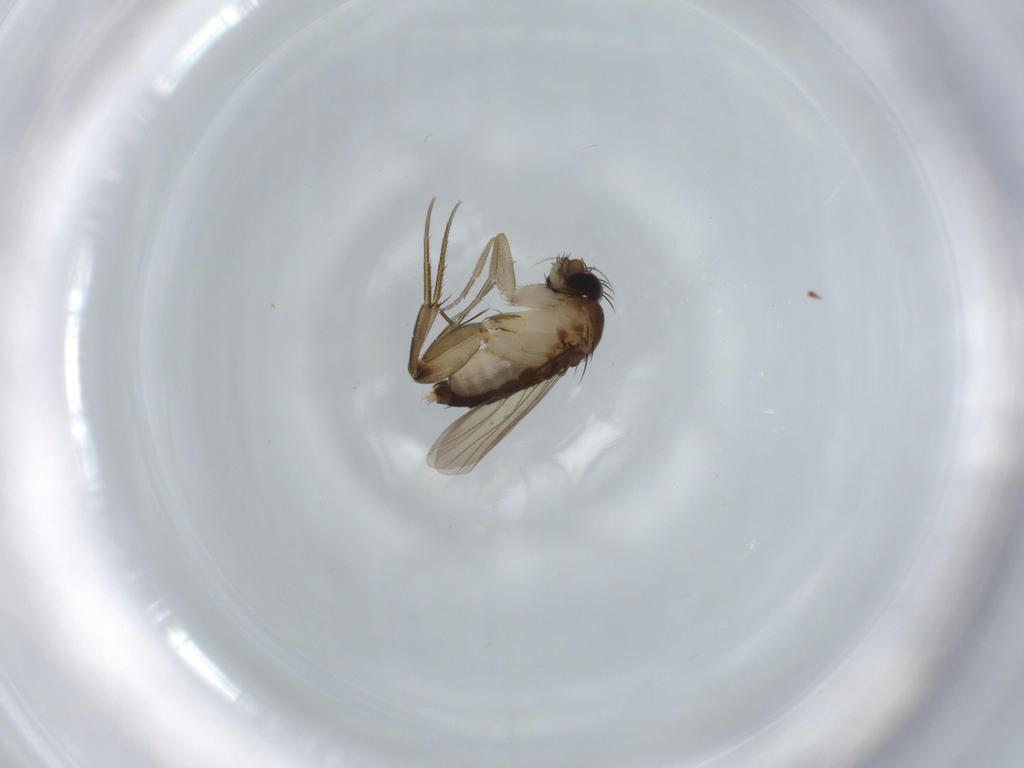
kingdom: Animalia
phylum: Arthropoda
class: Insecta
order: Diptera
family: Phoridae
